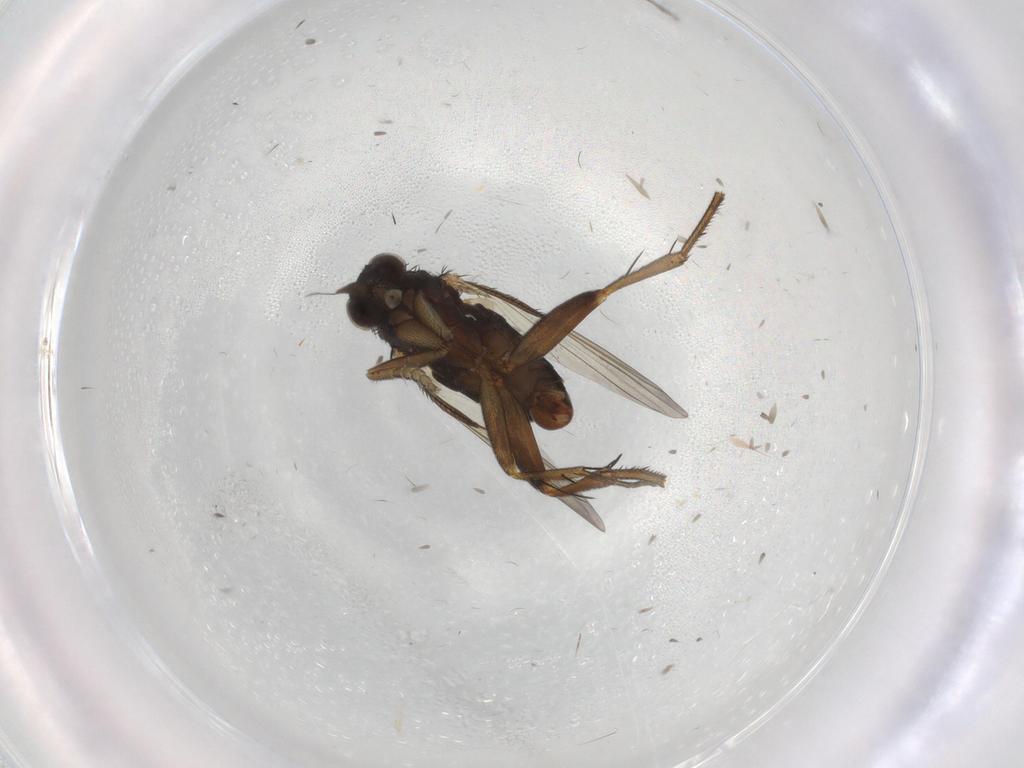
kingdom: Animalia
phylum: Arthropoda
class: Insecta
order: Diptera
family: Phoridae
